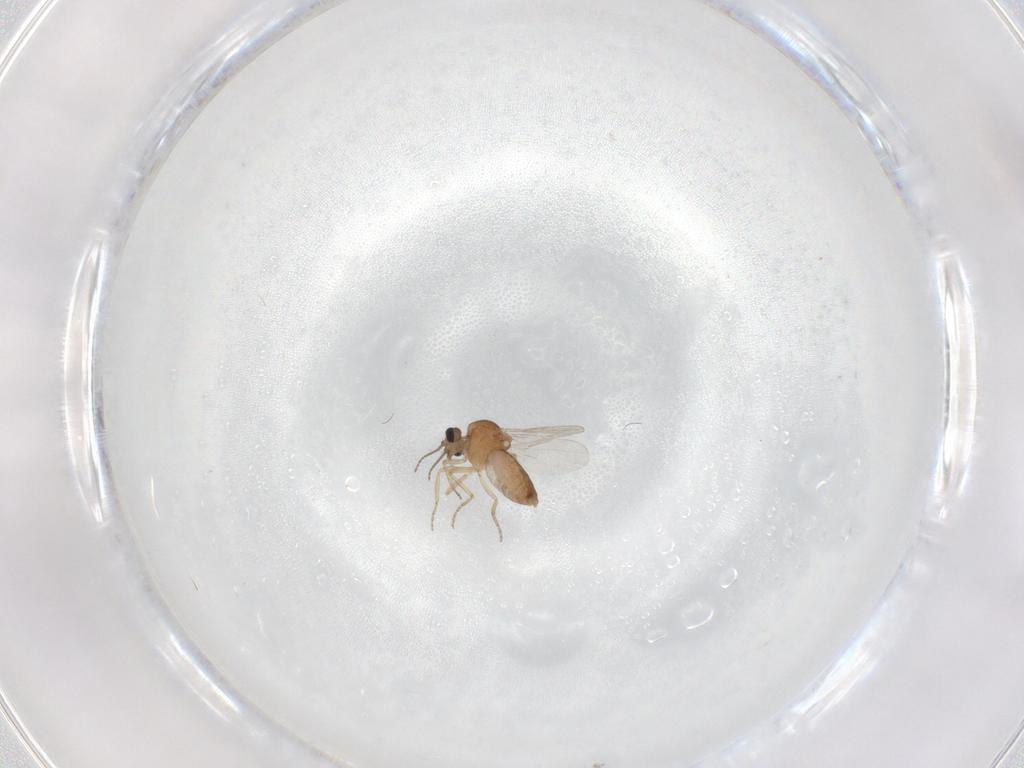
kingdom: Animalia
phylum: Arthropoda
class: Insecta
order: Diptera
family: Ceratopogonidae
